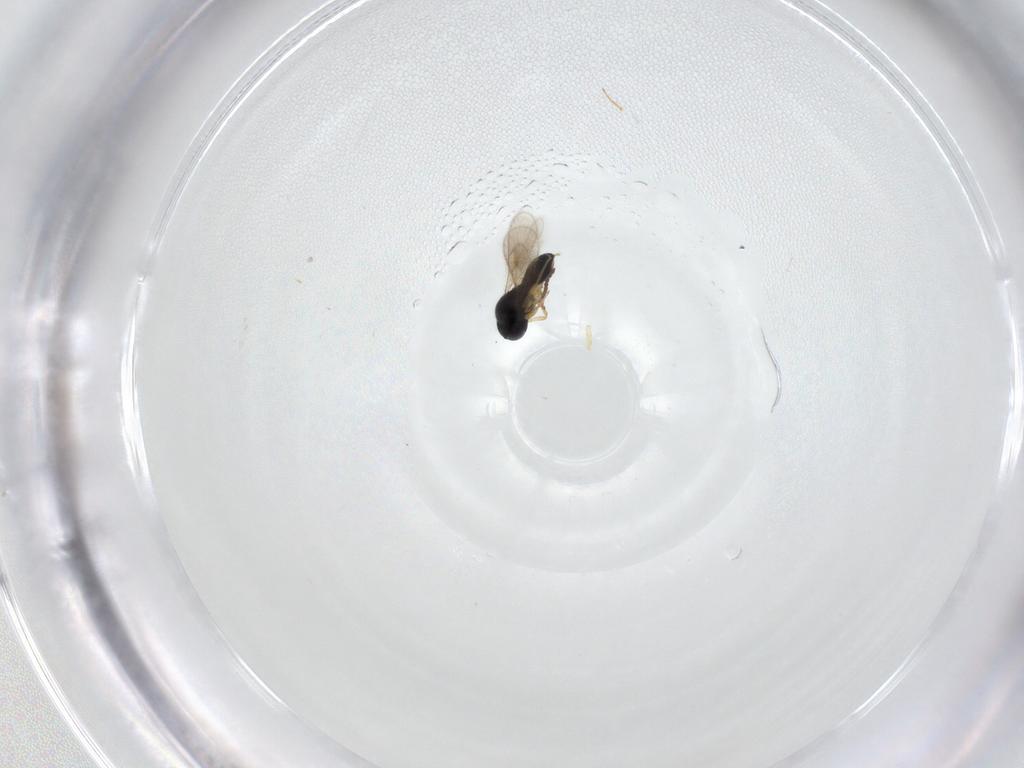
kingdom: Animalia
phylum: Arthropoda
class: Insecta
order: Hymenoptera
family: Scelionidae
